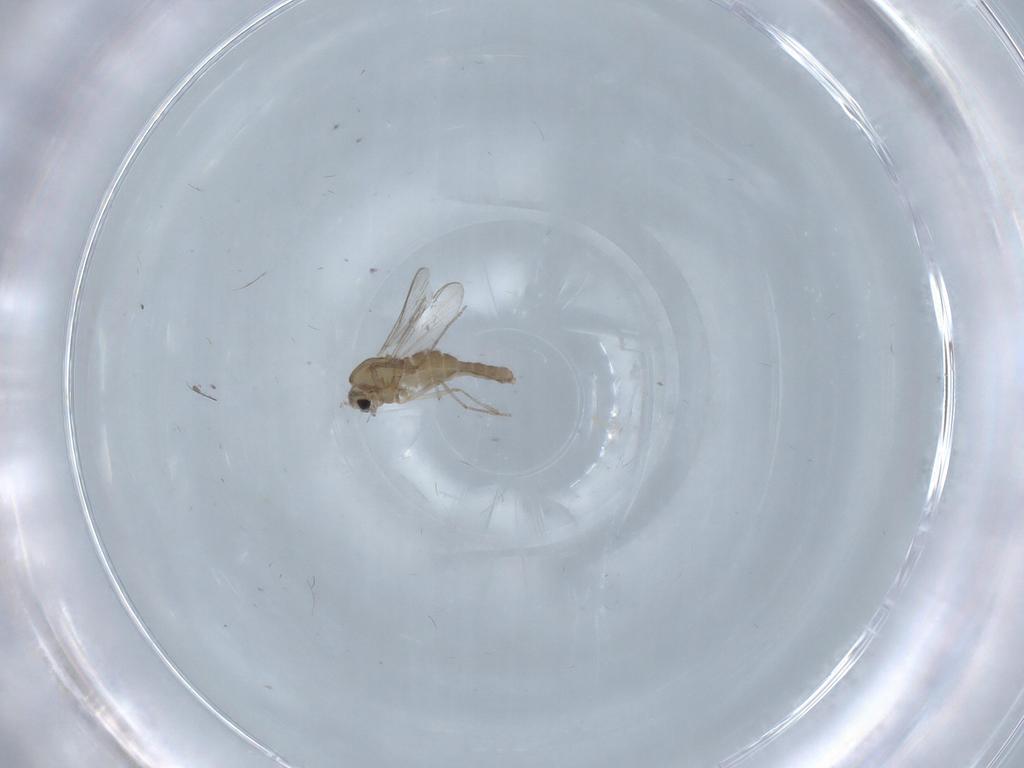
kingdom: Animalia
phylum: Arthropoda
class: Insecta
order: Diptera
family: Chironomidae
